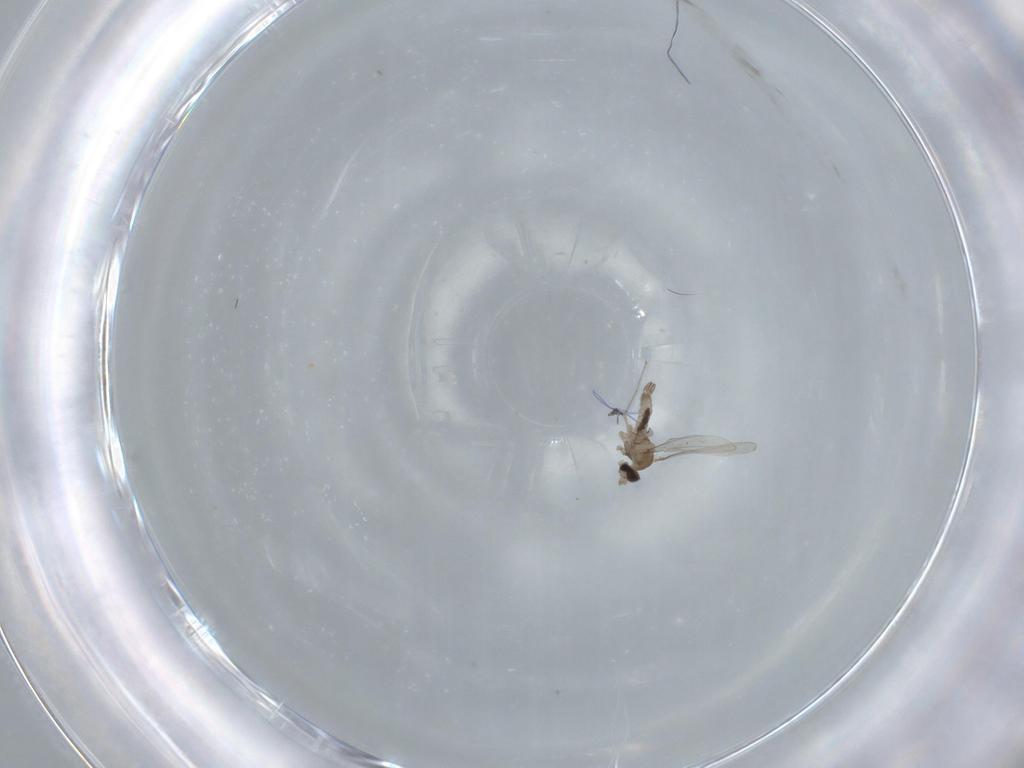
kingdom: Animalia
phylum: Arthropoda
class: Insecta
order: Diptera
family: Cecidomyiidae
